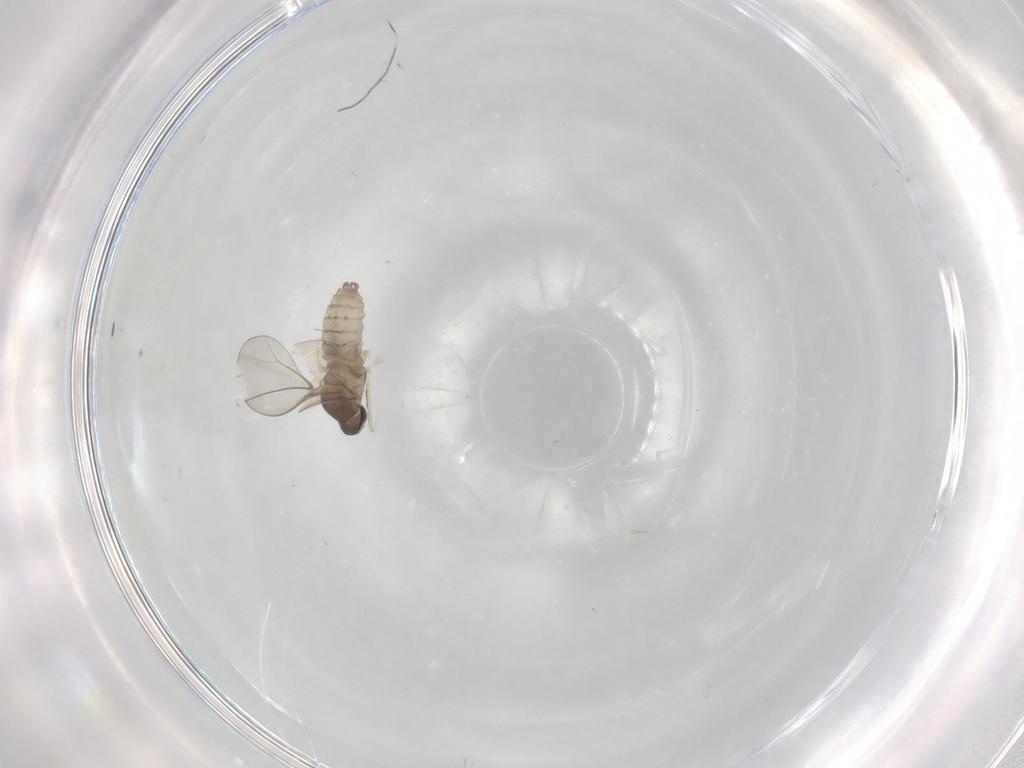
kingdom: Animalia
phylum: Arthropoda
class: Insecta
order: Diptera
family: Cecidomyiidae
